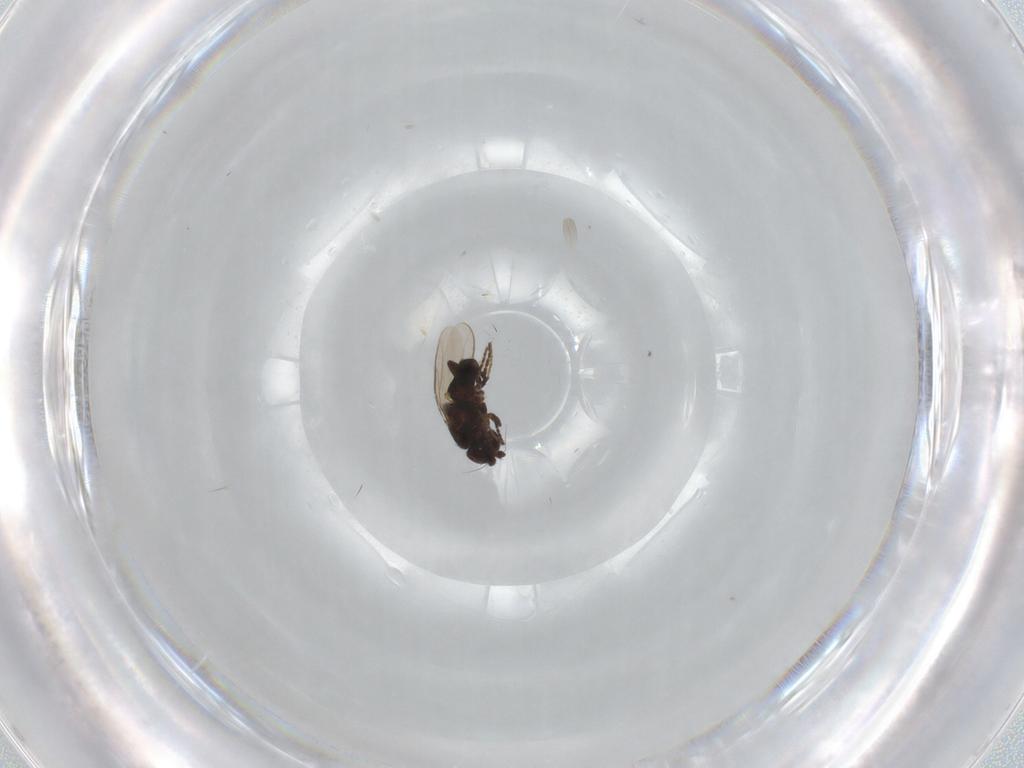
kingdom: Animalia
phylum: Arthropoda
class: Insecta
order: Diptera
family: Sphaeroceridae
